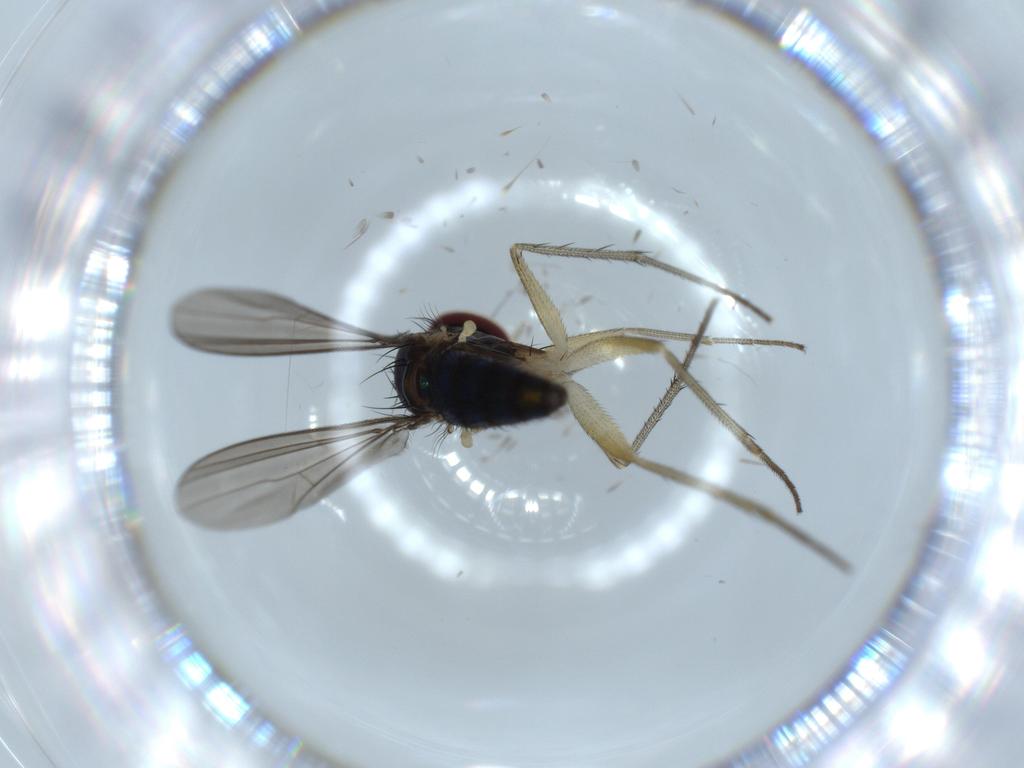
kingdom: Animalia
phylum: Arthropoda
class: Insecta
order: Diptera
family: Dolichopodidae
